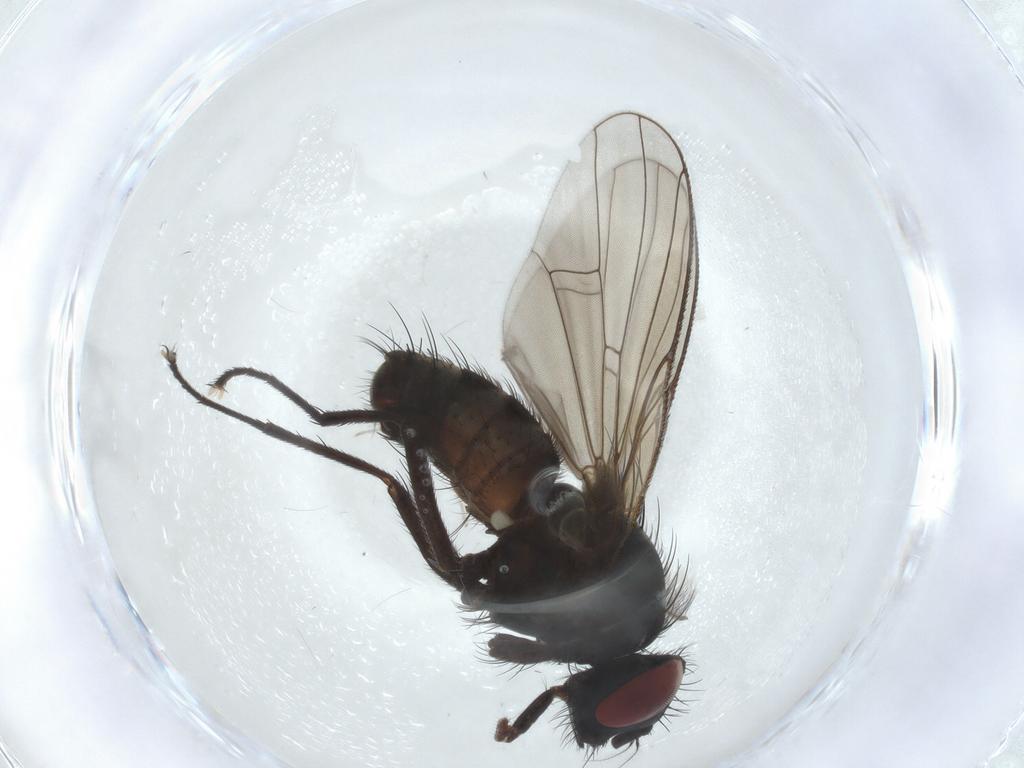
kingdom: Animalia
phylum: Arthropoda
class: Insecta
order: Diptera
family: Muscidae
